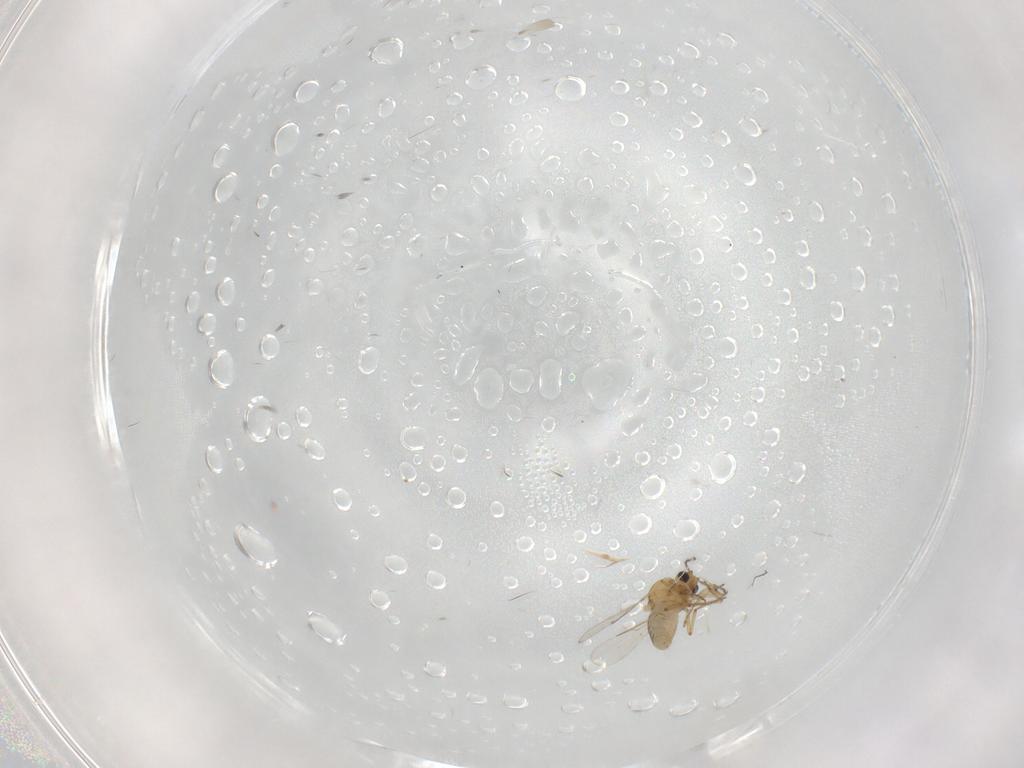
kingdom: Animalia
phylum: Arthropoda
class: Insecta
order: Diptera
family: Ceratopogonidae
